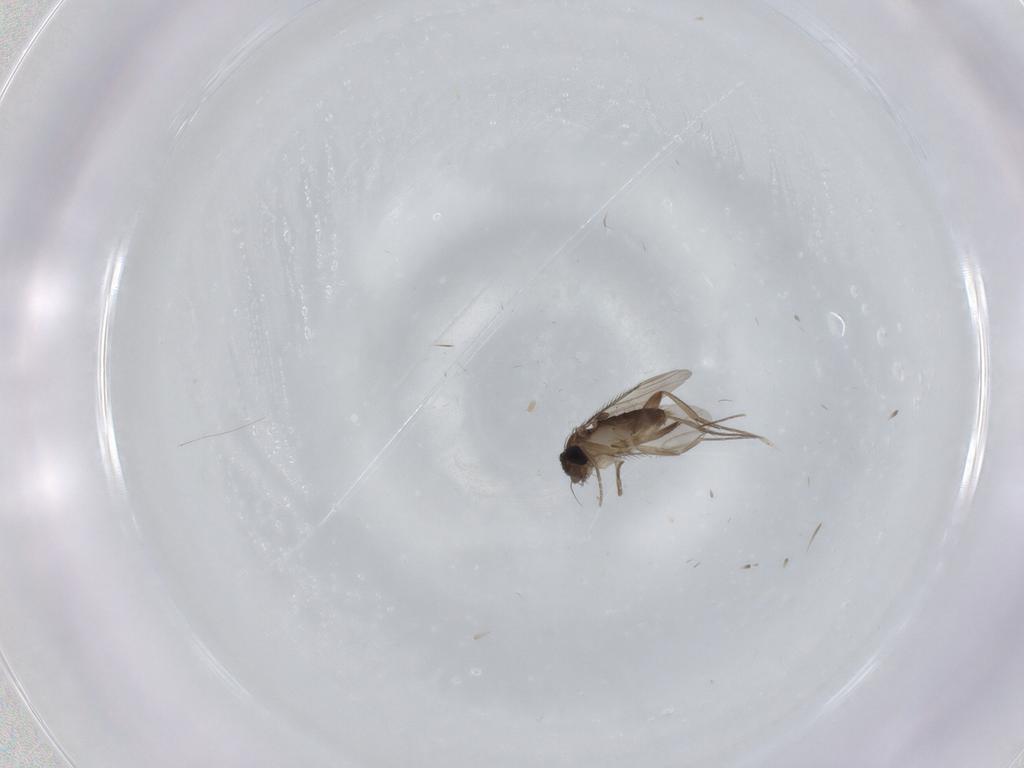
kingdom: Animalia
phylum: Arthropoda
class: Insecta
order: Diptera
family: Phoridae
